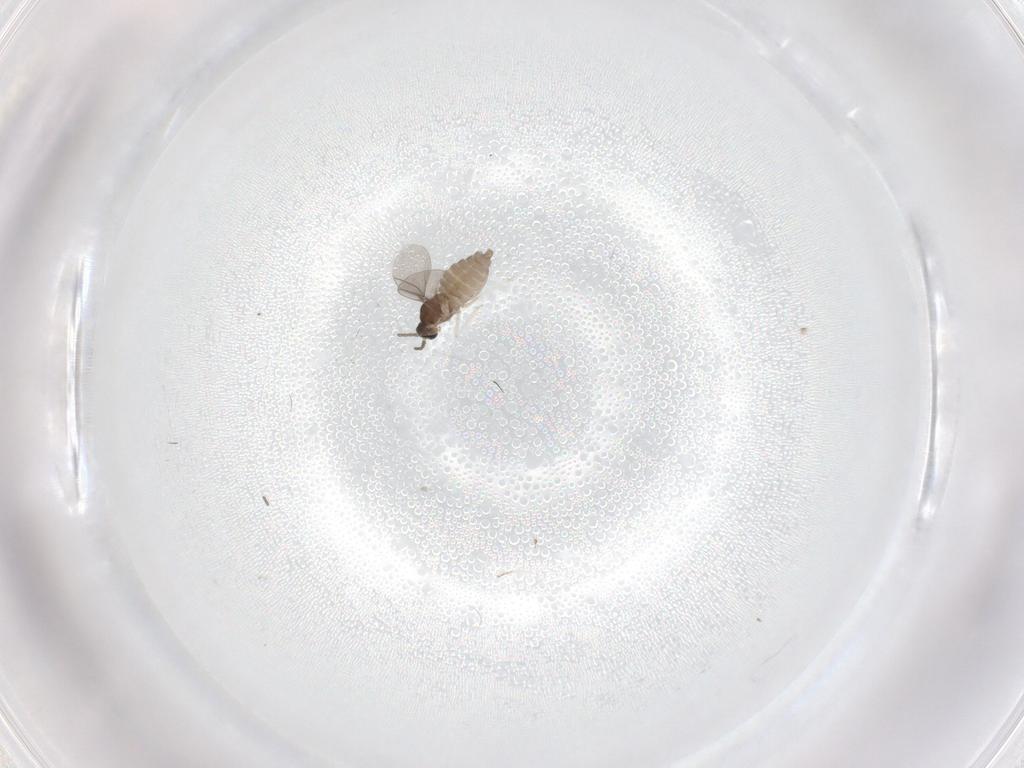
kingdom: Animalia
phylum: Arthropoda
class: Insecta
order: Diptera
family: Cecidomyiidae
